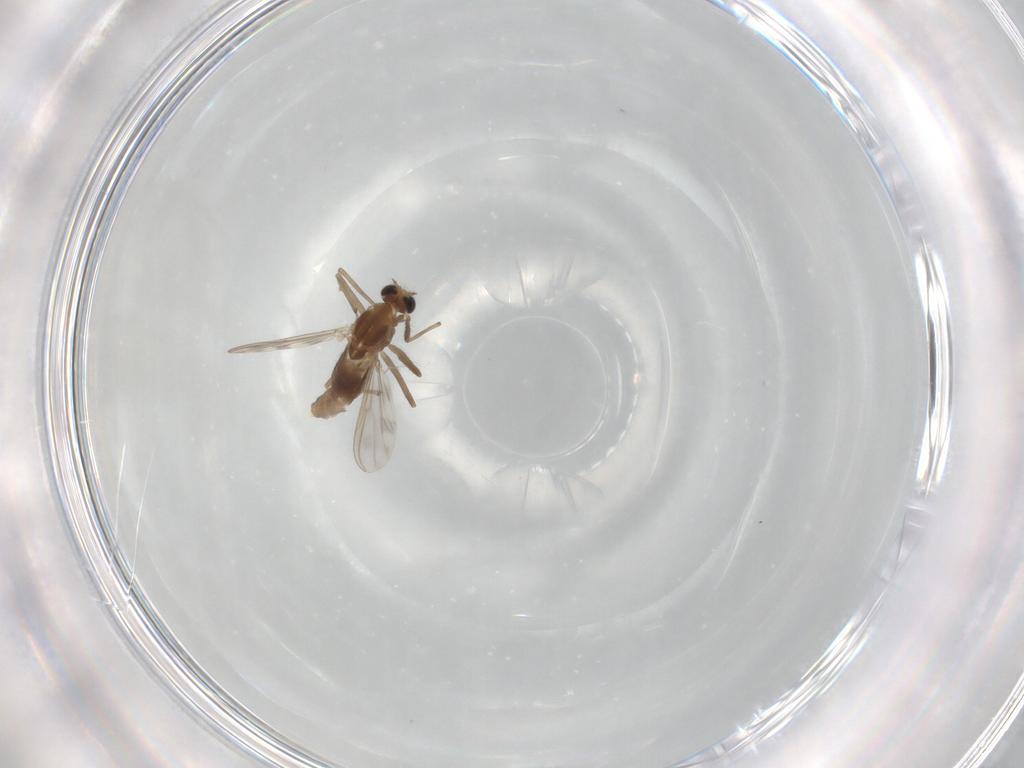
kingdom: Animalia
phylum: Arthropoda
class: Insecta
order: Diptera
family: Chironomidae
